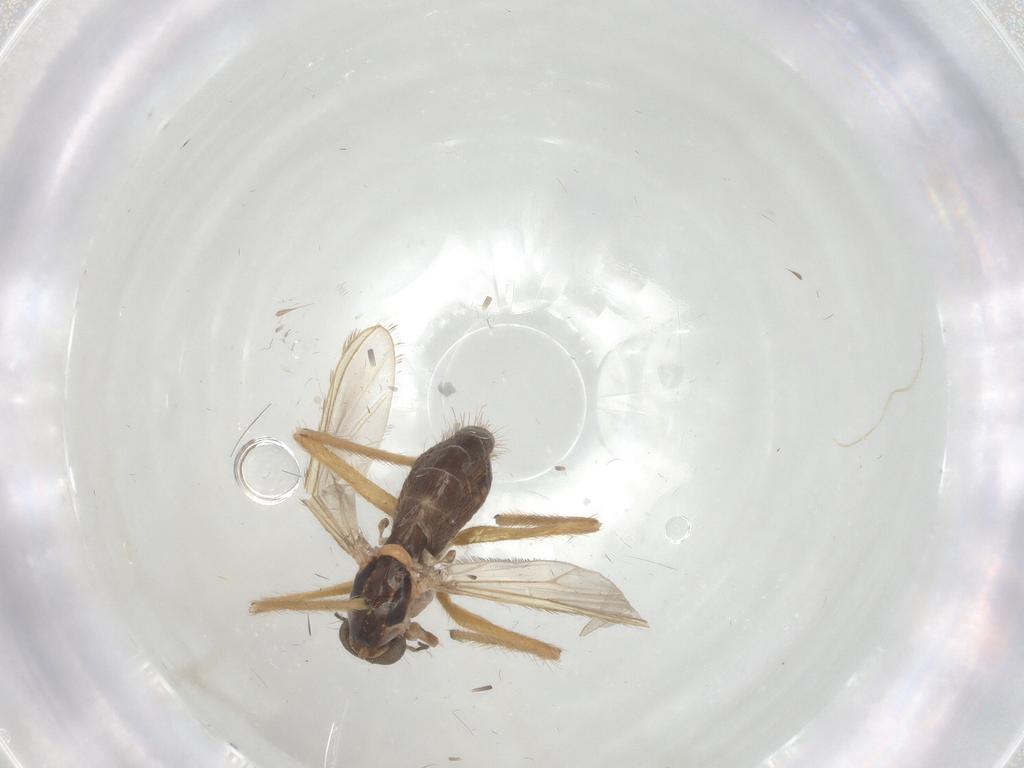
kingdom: Animalia
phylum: Arthropoda
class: Insecta
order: Diptera
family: Chironomidae
